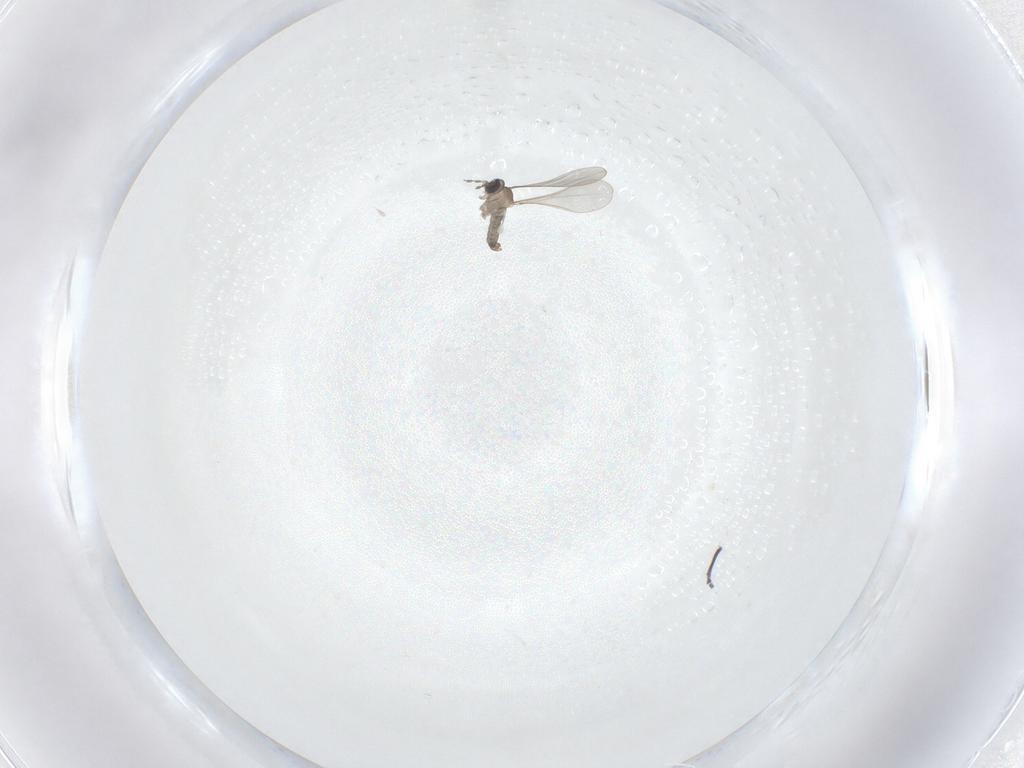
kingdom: Animalia
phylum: Arthropoda
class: Insecta
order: Diptera
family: Cecidomyiidae
